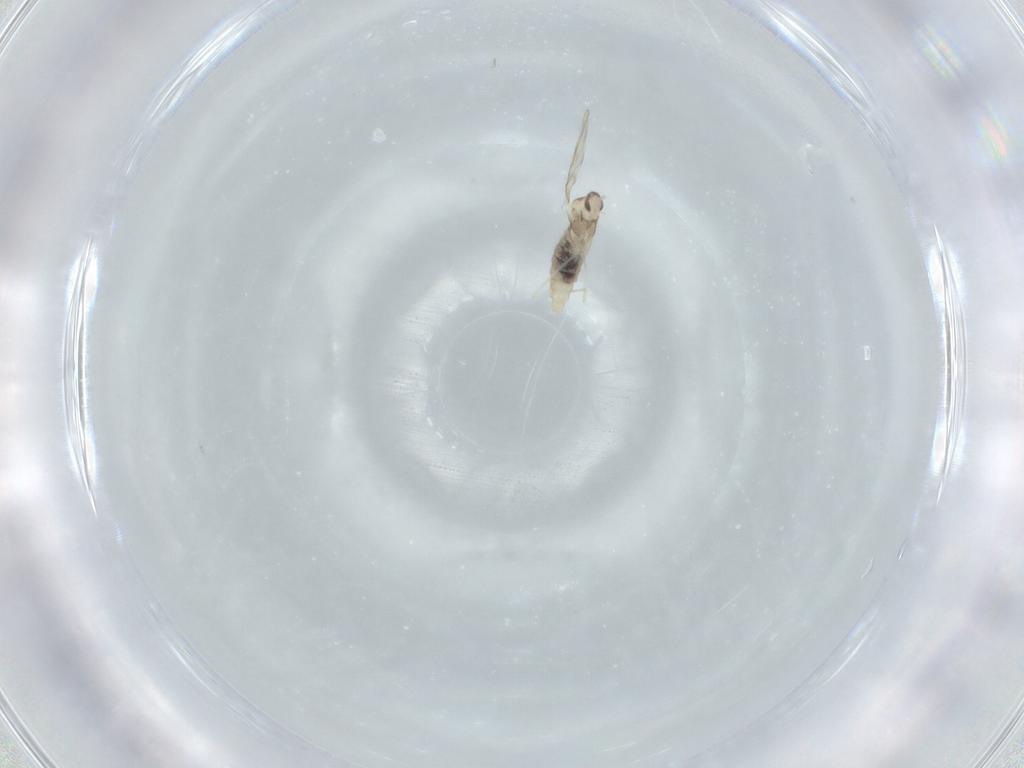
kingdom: Animalia
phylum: Arthropoda
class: Insecta
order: Diptera
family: Cecidomyiidae
